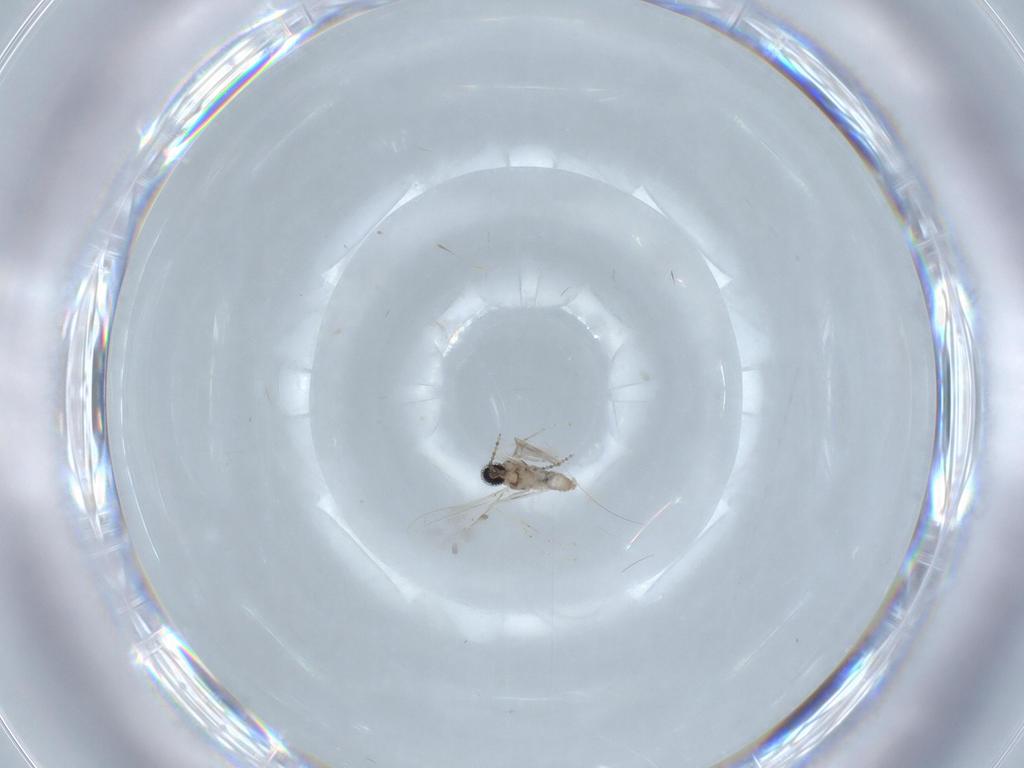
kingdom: Animalia
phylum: Arthropoda
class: Insecta
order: Diptera
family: Cecidomyiidae
